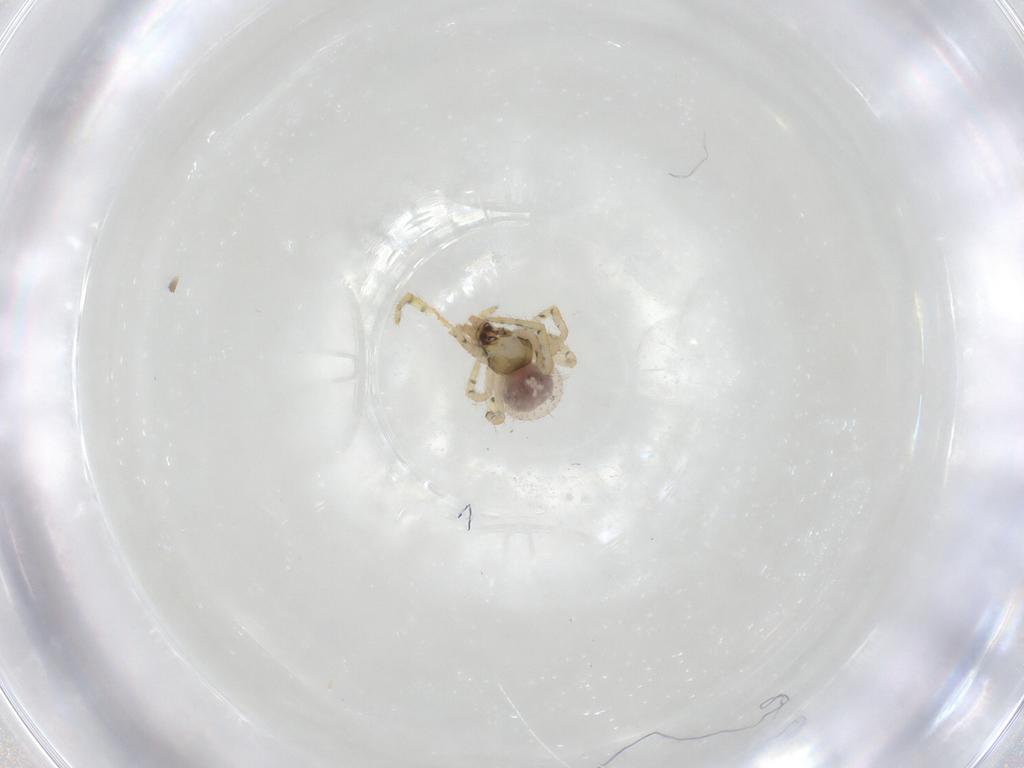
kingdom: Animalia
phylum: Arthropoda
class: Arachnida
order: Araneae
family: Theridiidae
